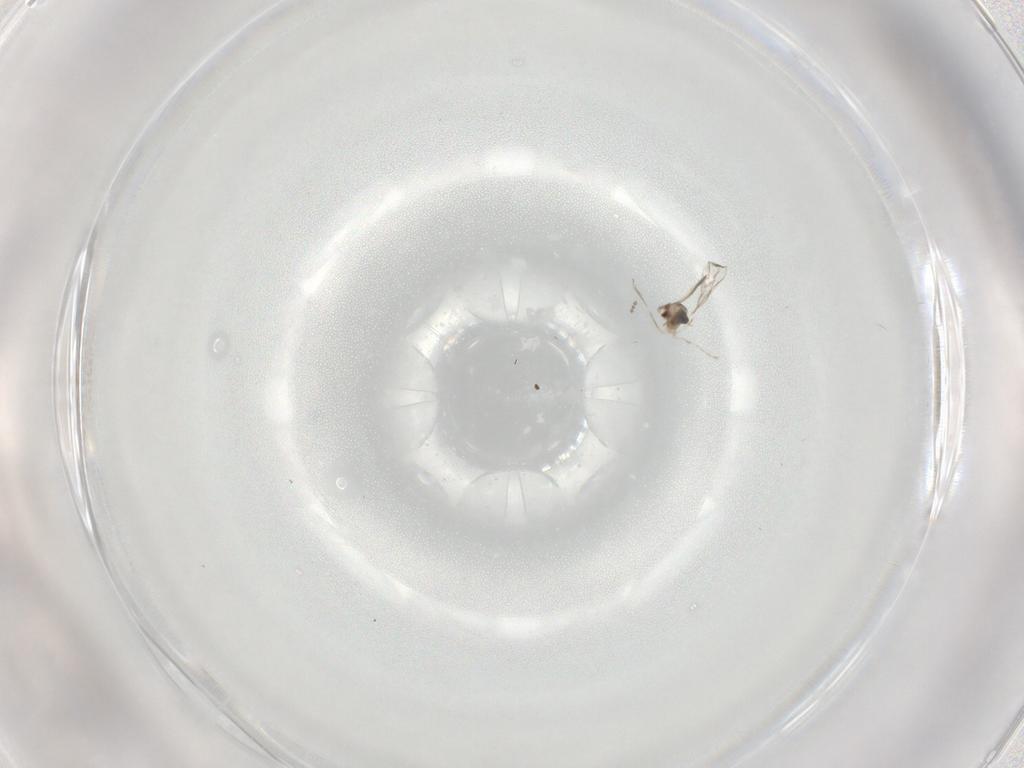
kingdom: Animalia
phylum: Arthropoda
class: Insecta
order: Diptera
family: Cecidomyiidae
